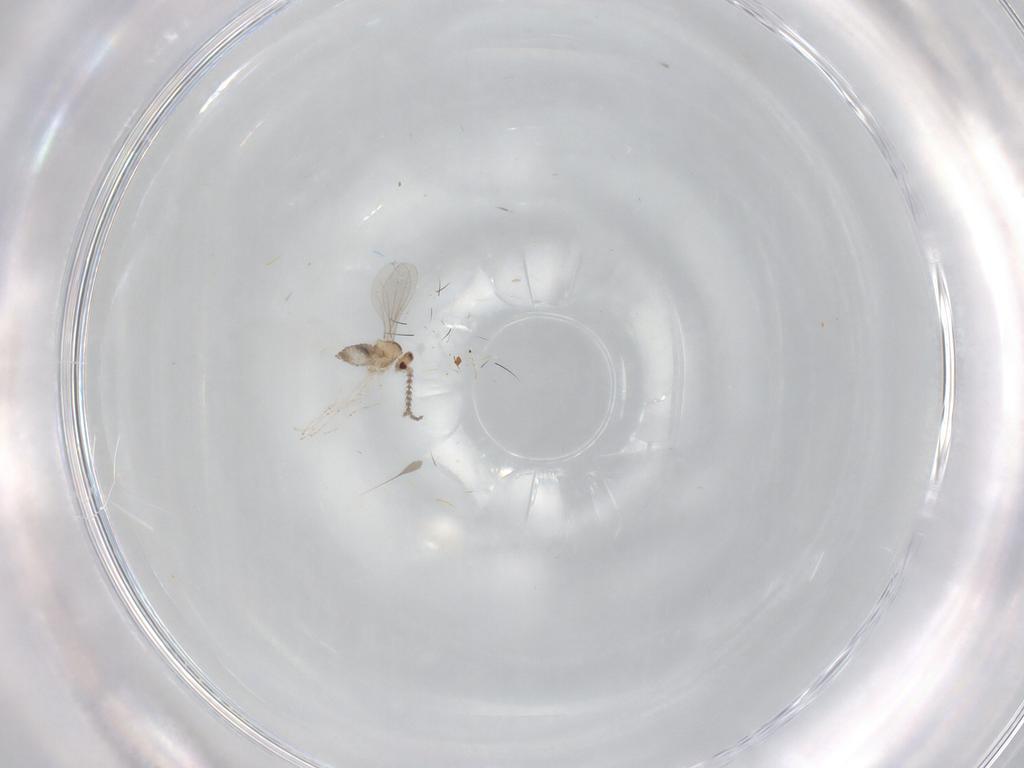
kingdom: Animalia
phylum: Arthropoda
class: Insecta
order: Diptera
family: Cecidomyiidae
